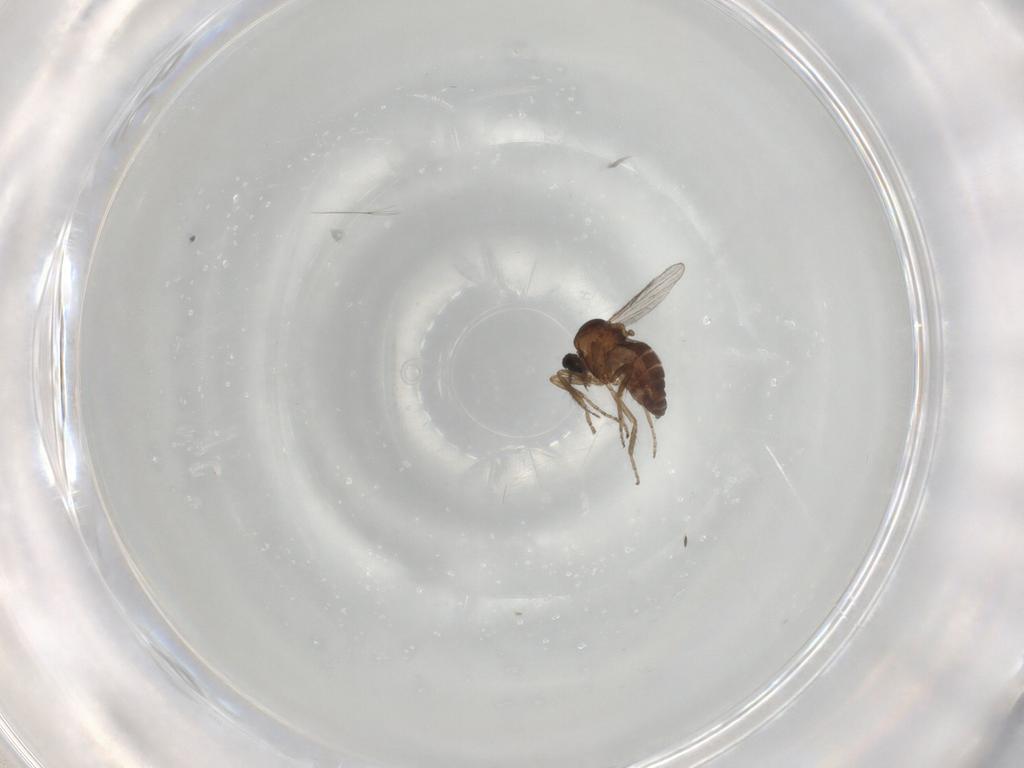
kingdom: Animalia
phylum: Arthropoda
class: Insecta
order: Diptera
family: Sciaridae
